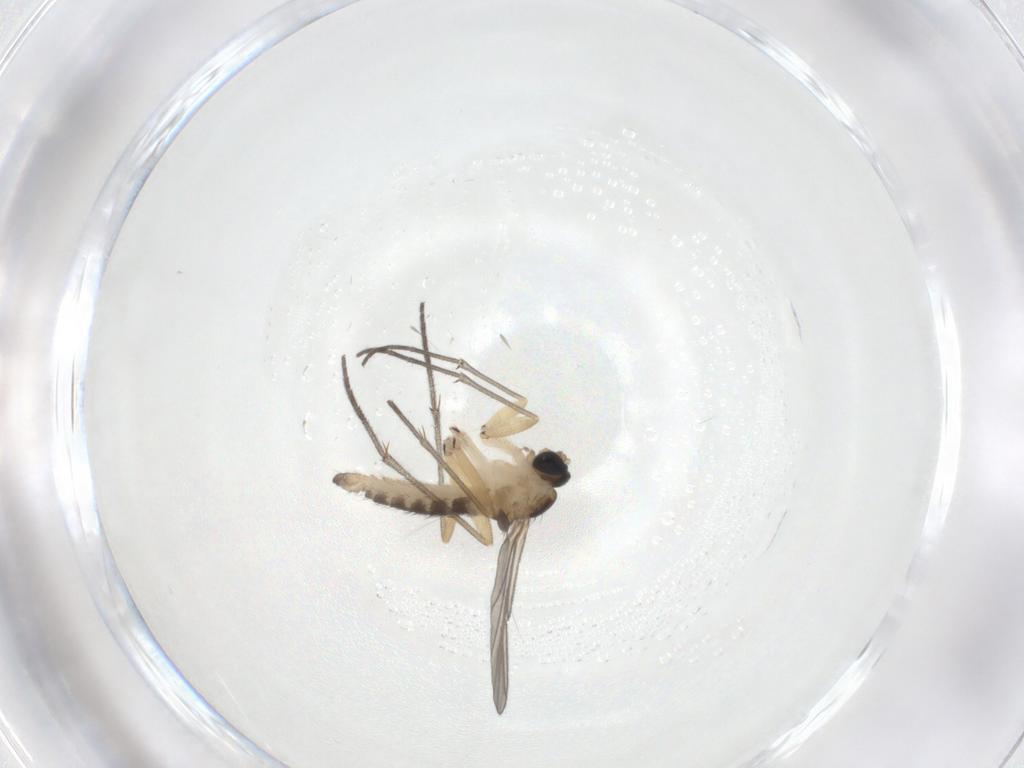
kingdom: Animalia
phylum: Arthropoda
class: Insecta
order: Diptera
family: Sciaridae
